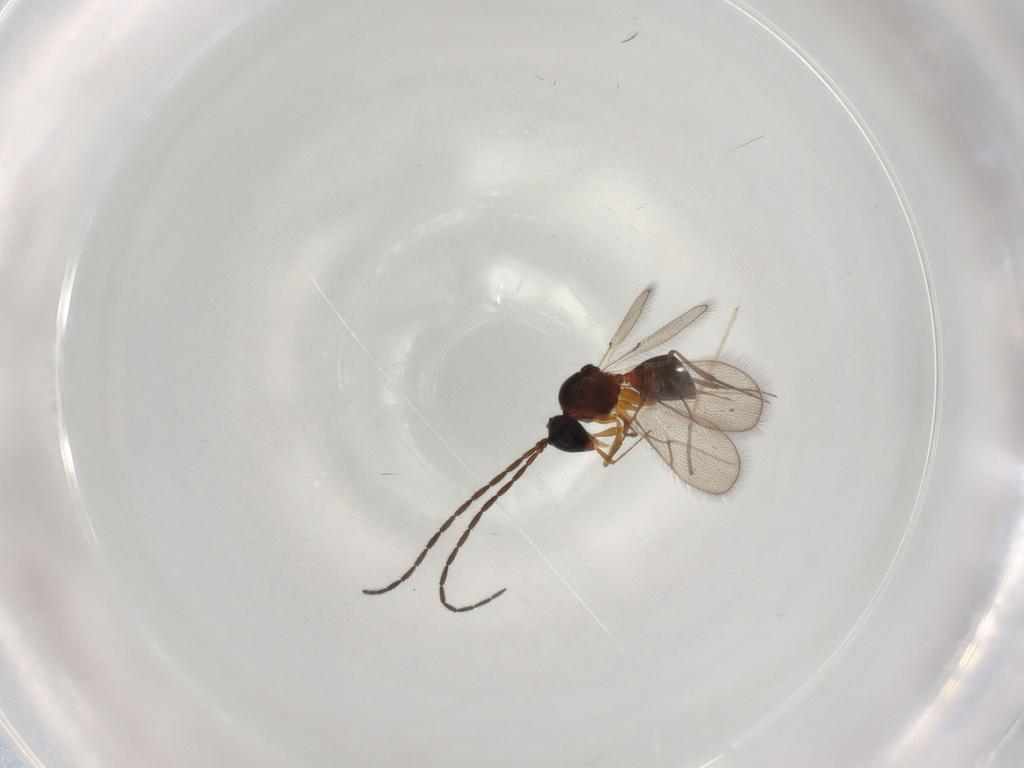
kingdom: Animalia
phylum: Arthropoda
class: Insecta
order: Hymenoptera
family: Figitidae
